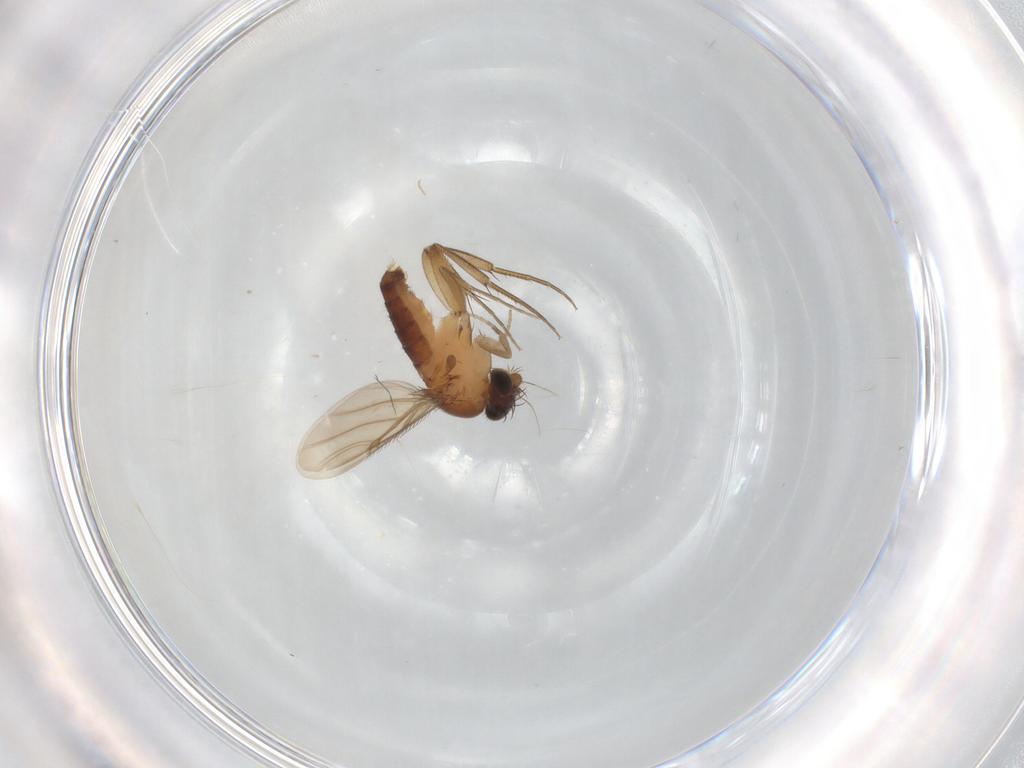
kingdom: Animalia
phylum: Arthropoda
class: Insecta
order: Diptera
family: Phoridae
